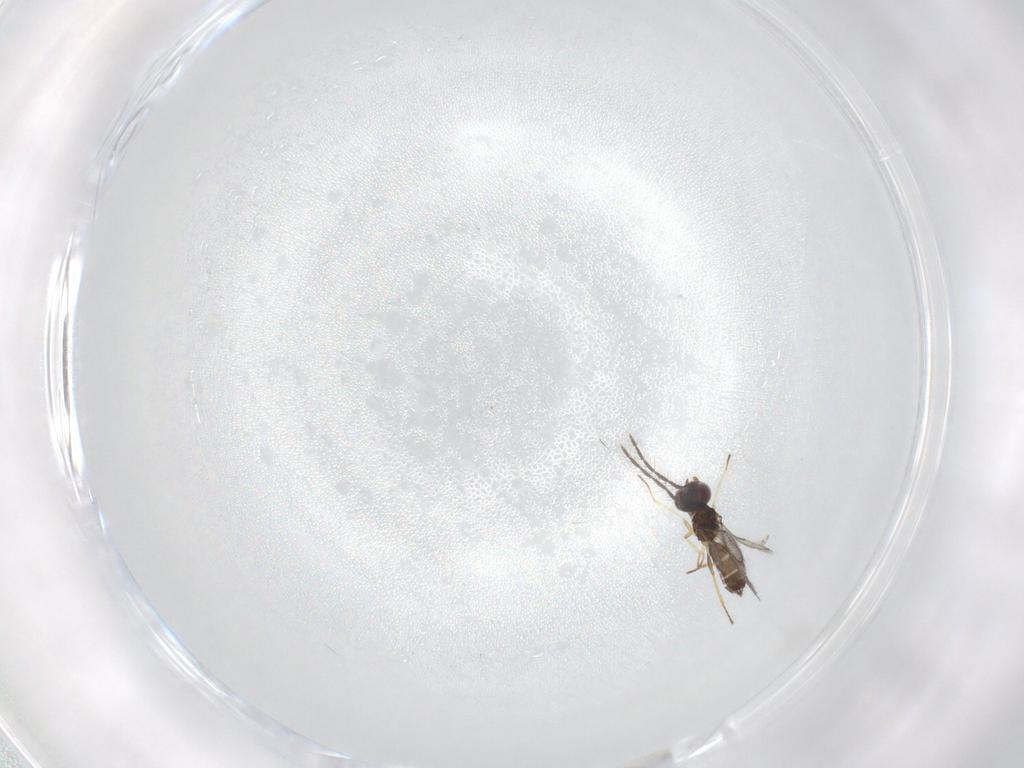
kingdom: Animalia
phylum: Arthropoda
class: Insecta
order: Hymenoptera
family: Eulophidae
